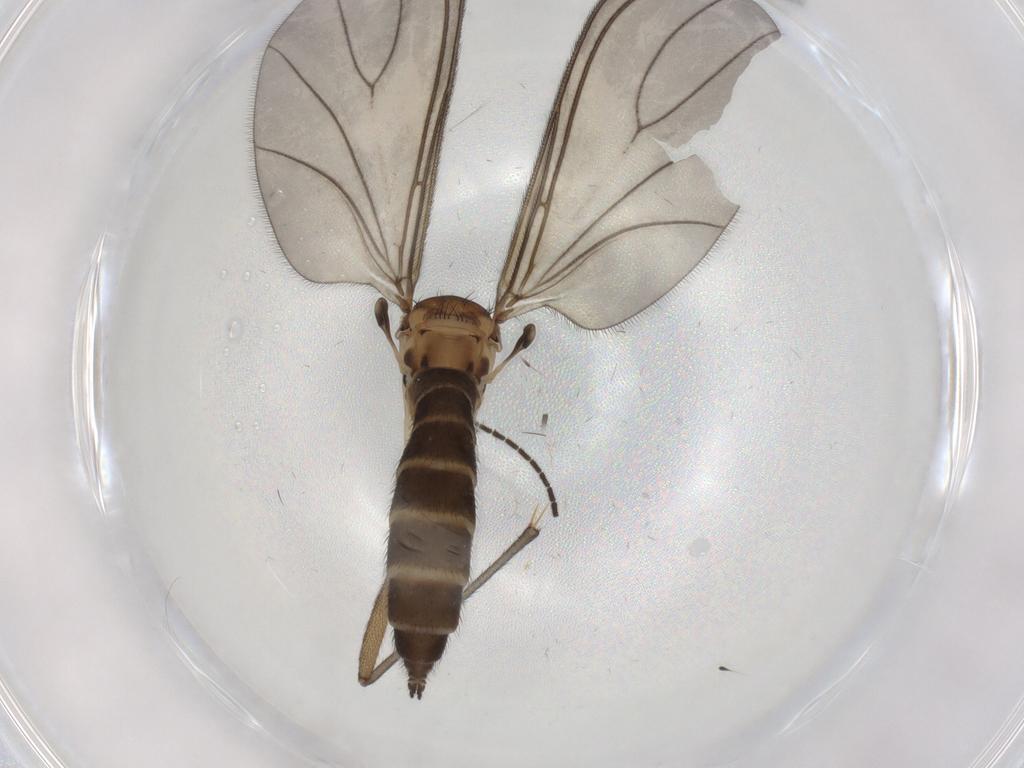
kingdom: Animalia
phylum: Arthropoda
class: Insecta
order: Diptera
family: Sciaridae
